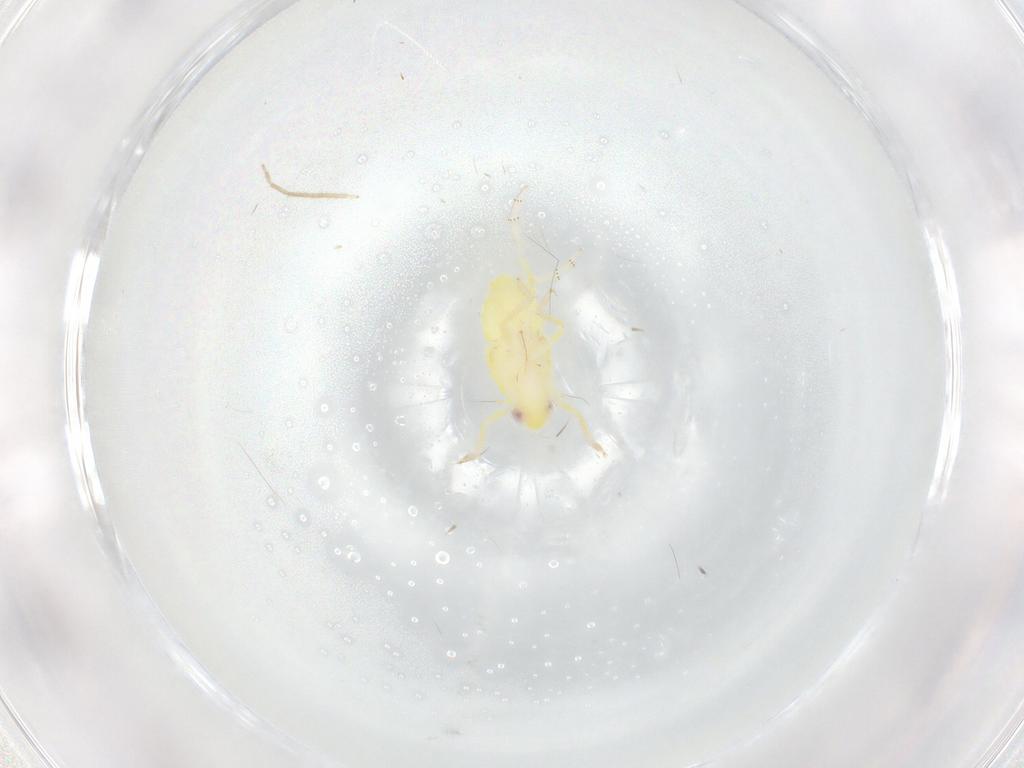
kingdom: Animalia
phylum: Arthropoda
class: Insecta
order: Hemiptera
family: Tropiduchidae
